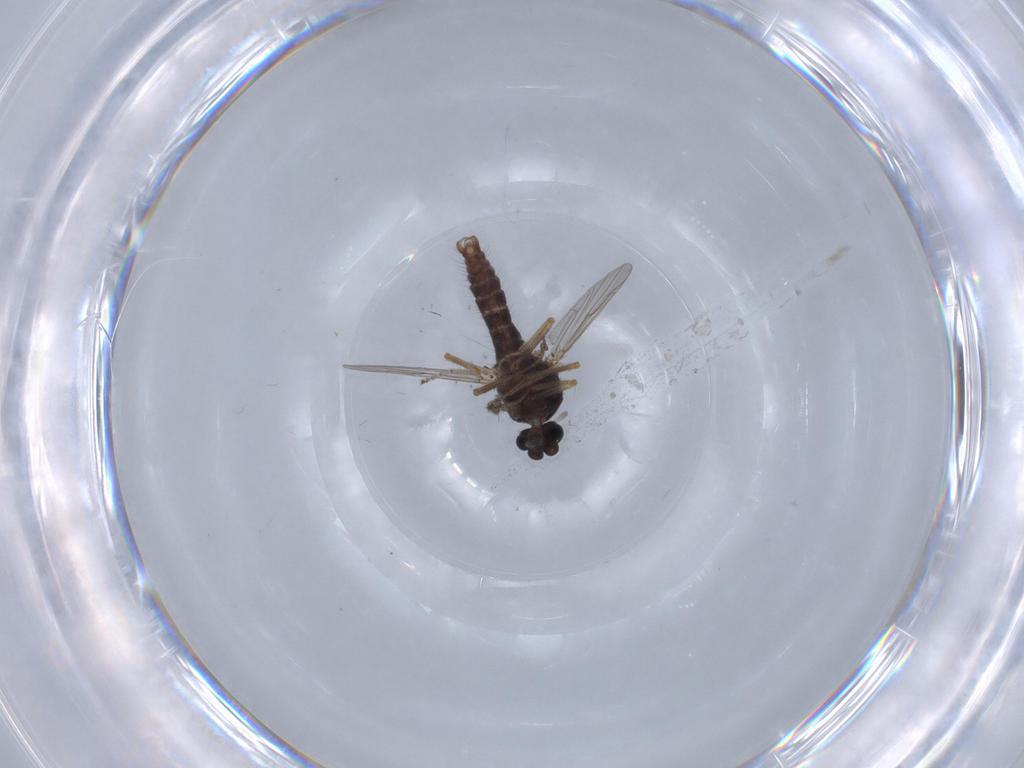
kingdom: Animalia
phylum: Arthropoda
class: Insecta
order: Diptera
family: Ceratopogonidae
